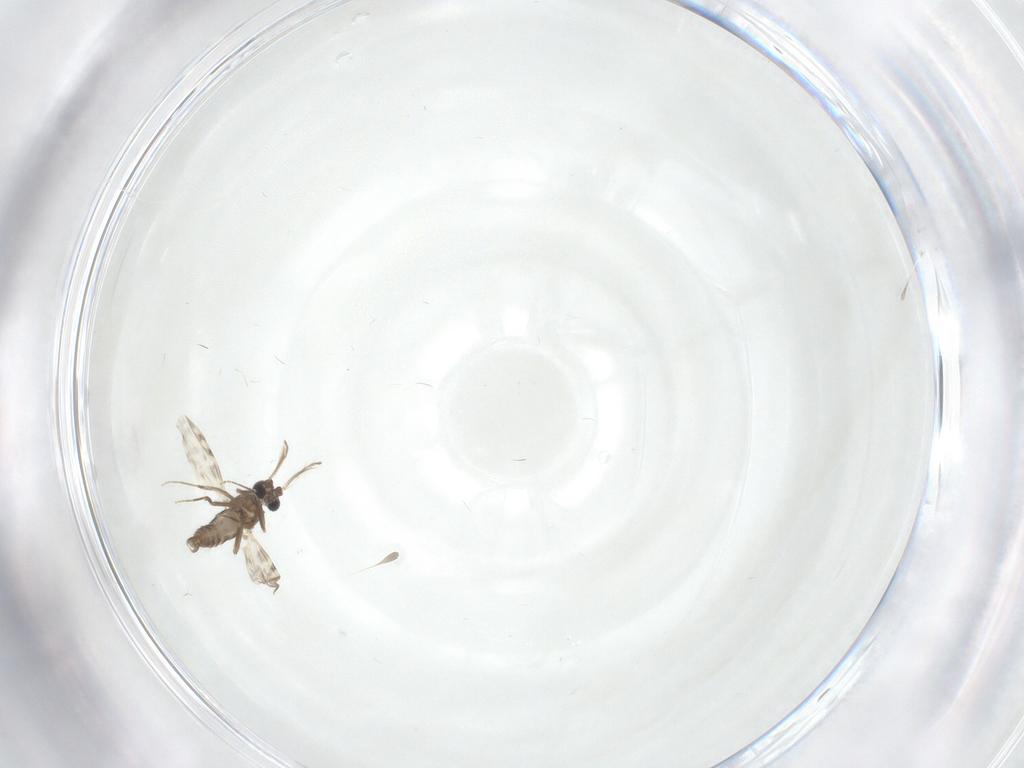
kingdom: Animalia
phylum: Arthropoda
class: Insecta
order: Diptera
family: Ceratopogonidae
